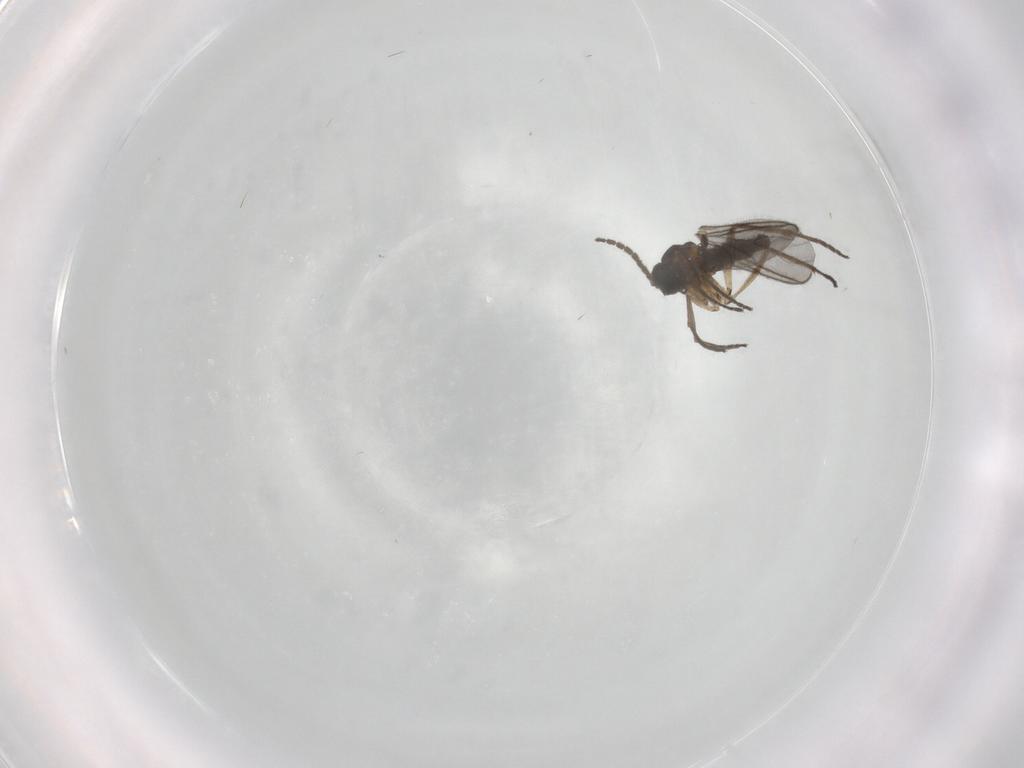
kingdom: Animalia
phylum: Arthropoda
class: Insecta
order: Diptera
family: Sciaridae
